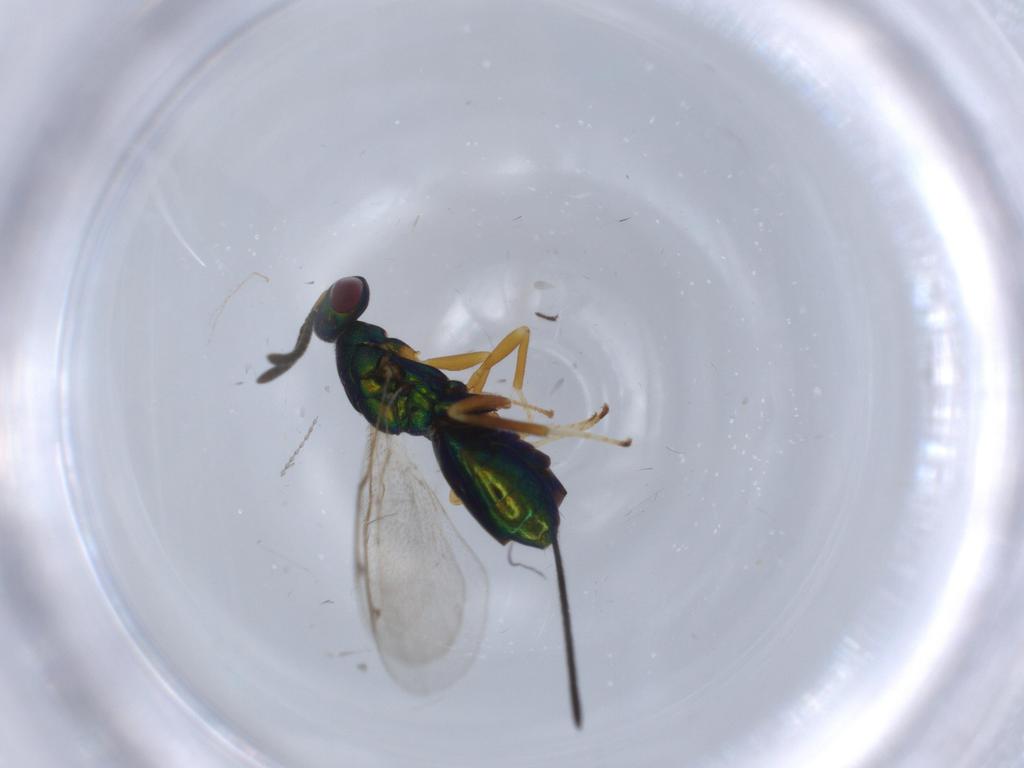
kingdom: Animalia
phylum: Arthropoda
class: Insecta
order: Hymenoptera
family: Torymidae
